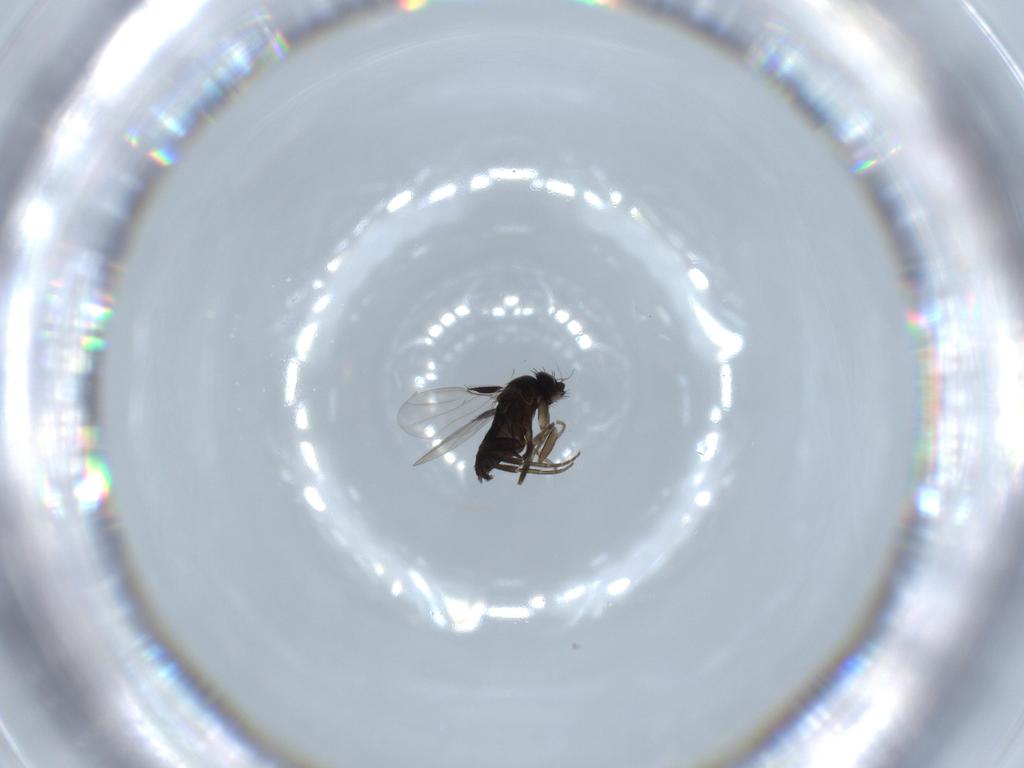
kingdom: Animalia
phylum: Arthropoda
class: Insecta
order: Diptera
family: Phoridae
